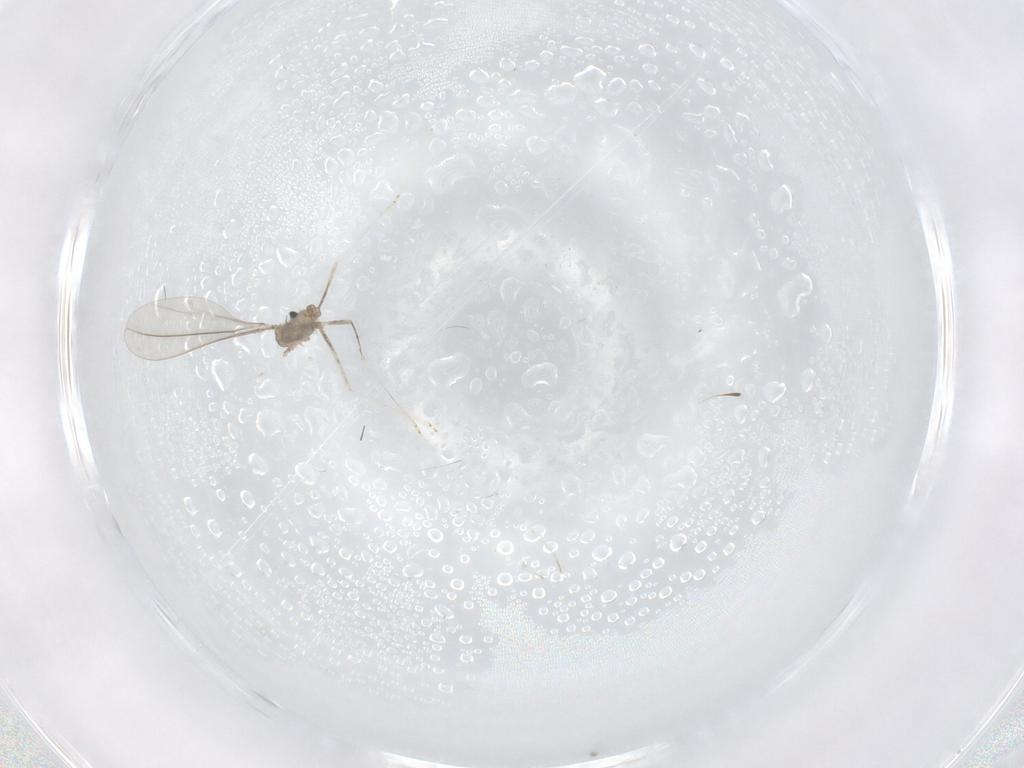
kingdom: Animalia
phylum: Arthropoda
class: Insecta
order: Diptera
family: Cecidomyiidae
